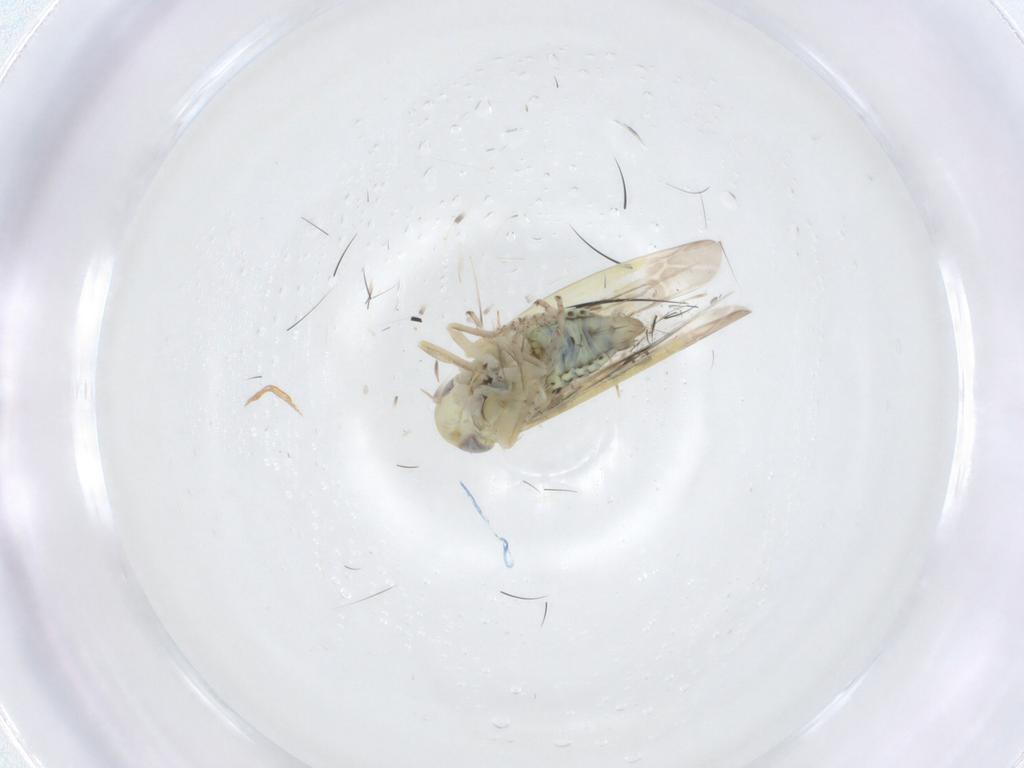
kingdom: Animalia
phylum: Arthropoda
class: Insecta
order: Hemiptera
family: Cicadellidae
